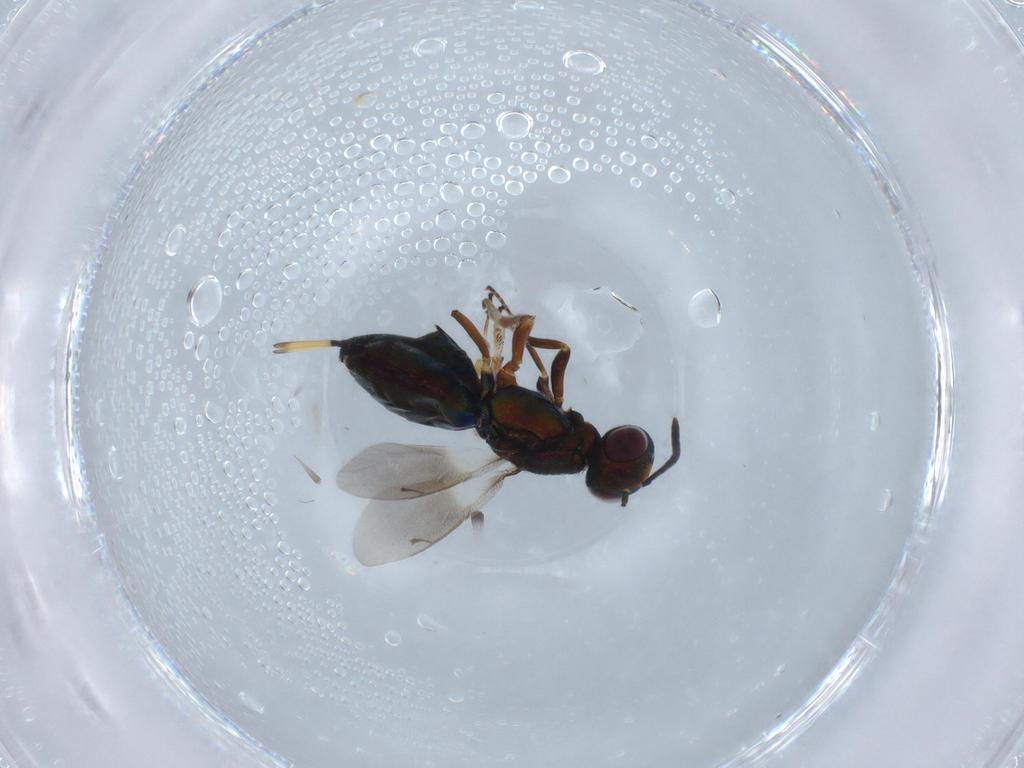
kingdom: Animalia
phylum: Arthropoda
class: Insecta
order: Hymenoptera
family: Eupelmidae
